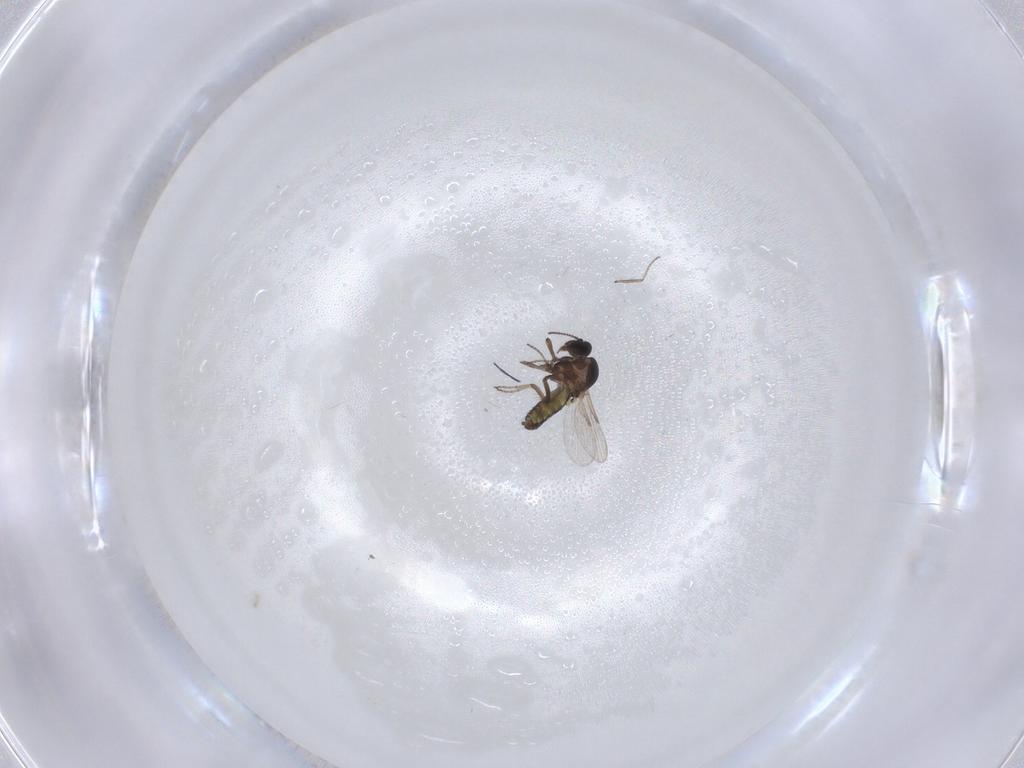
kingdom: Animalia
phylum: Arthropoda
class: Insecta
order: Diptera
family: Ceratopogonidae
